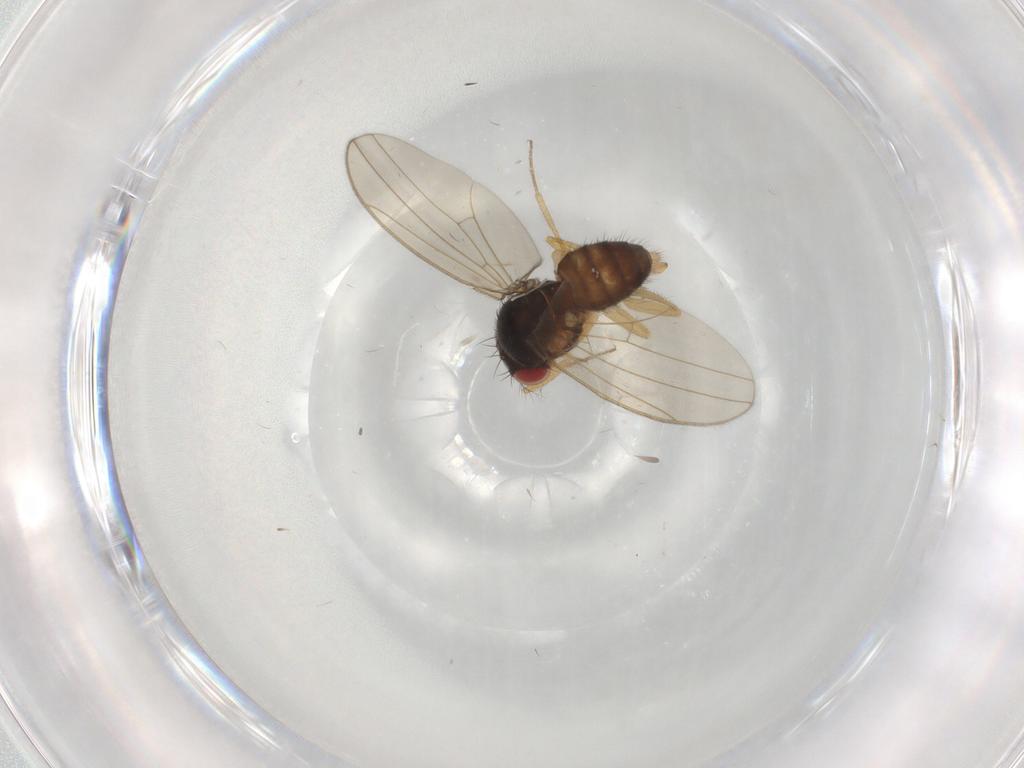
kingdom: Animalia
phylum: Arthropoda
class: Insecta
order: Diptera
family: Drosophilidae
